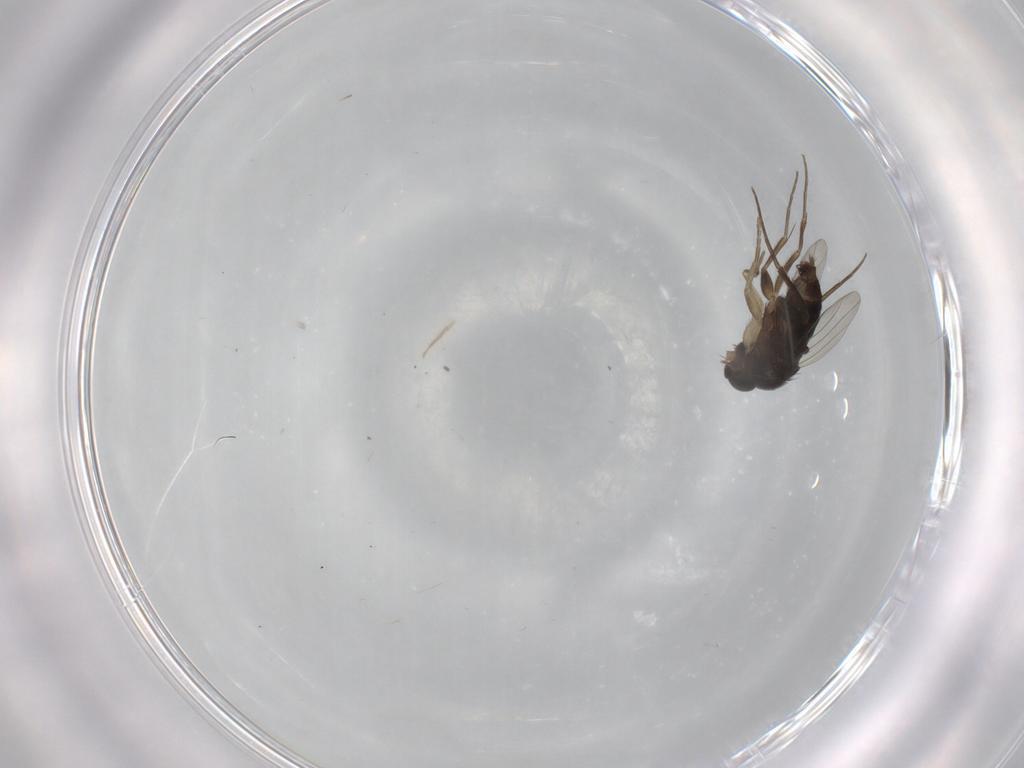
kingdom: Animalia
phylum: Arthropoda
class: Insecta
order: Diptera
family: Phoridae
